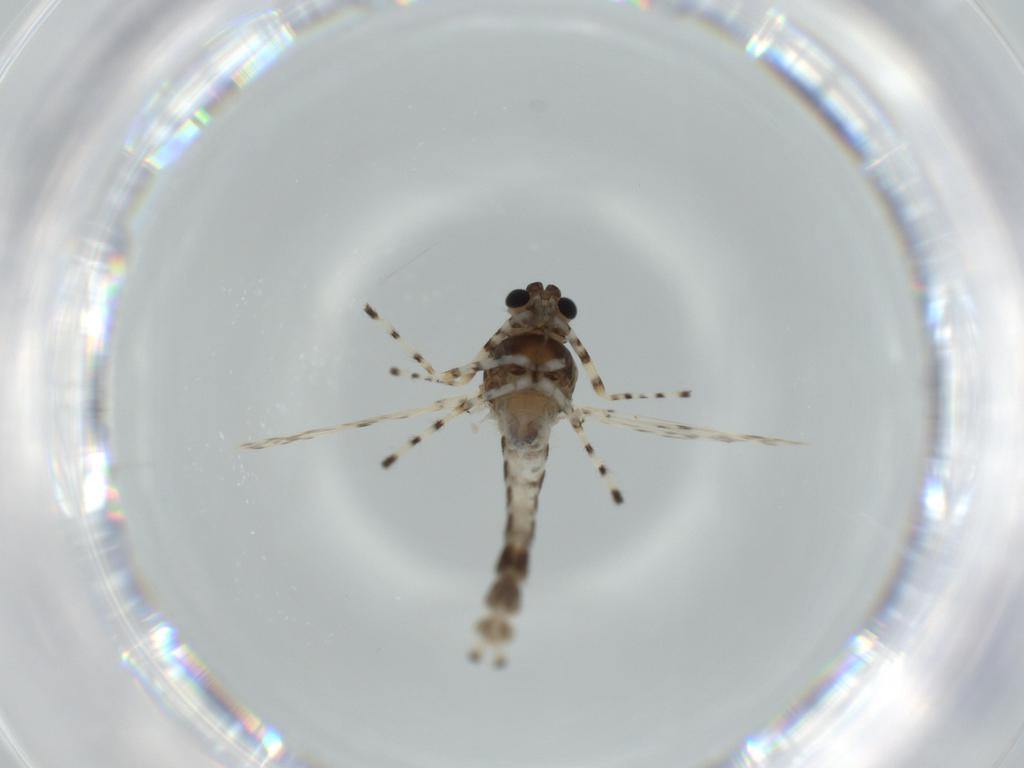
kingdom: Animalia
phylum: Arthropoda
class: Insecta
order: Diptera
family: Chironomidae
